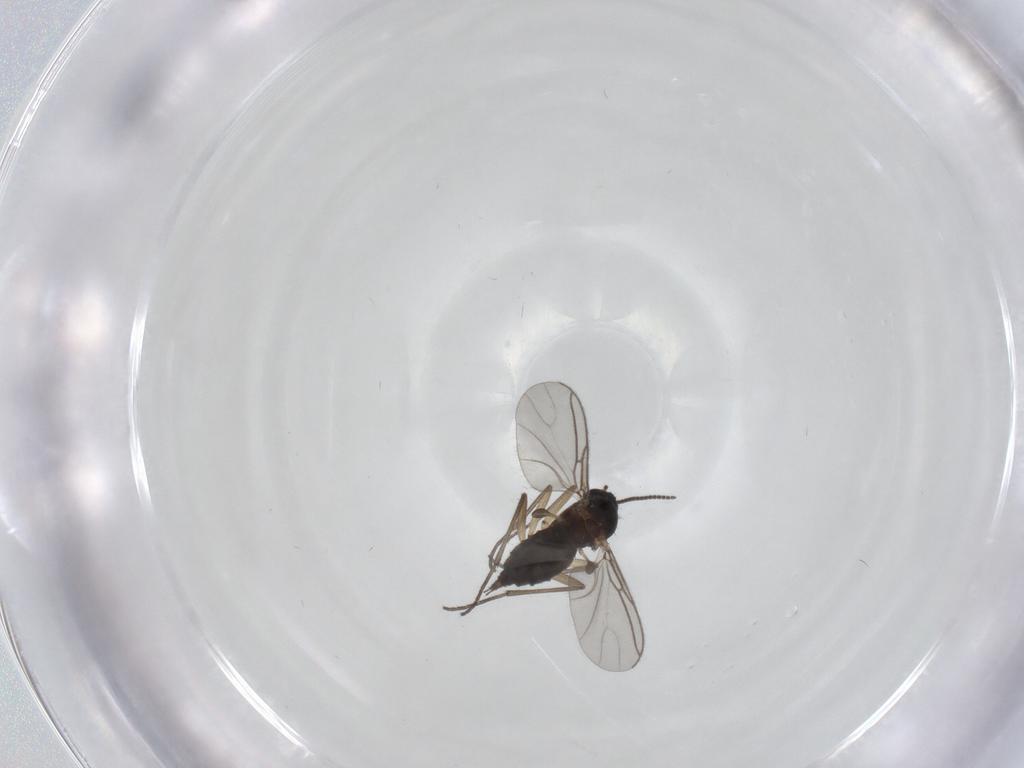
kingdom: Animalia
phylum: Arthropoda
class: Insecta
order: Diptera
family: Sciaridae
